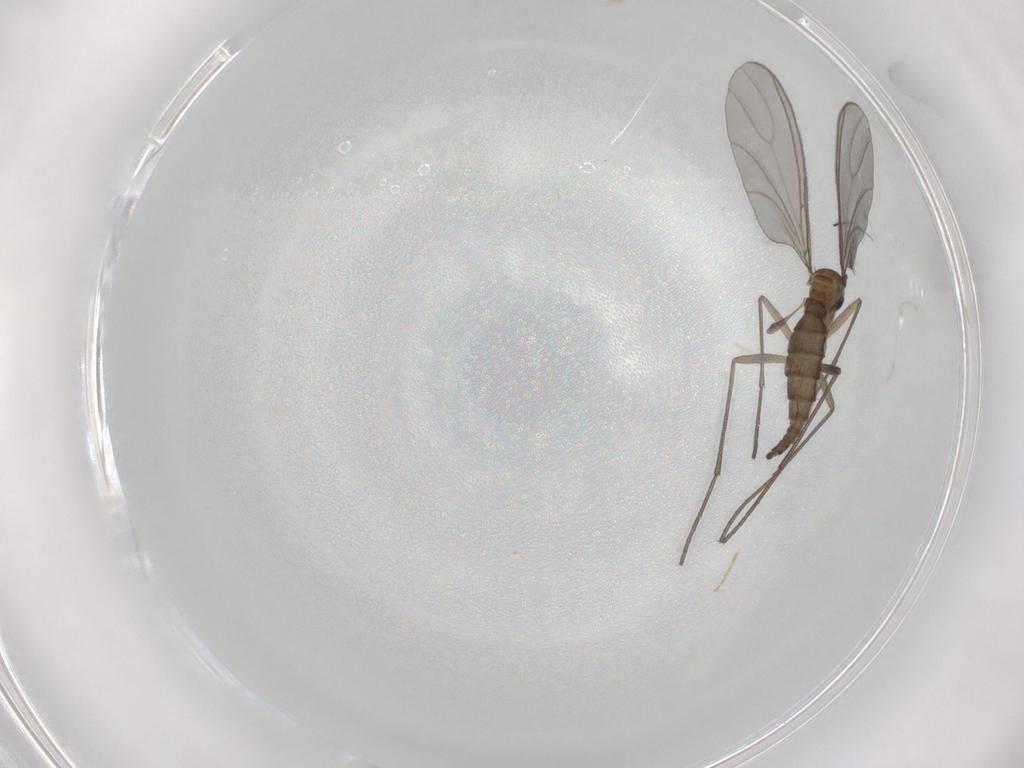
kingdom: Animalia
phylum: Arthropoda
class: Insecta
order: Diptera
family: Sciaridae
